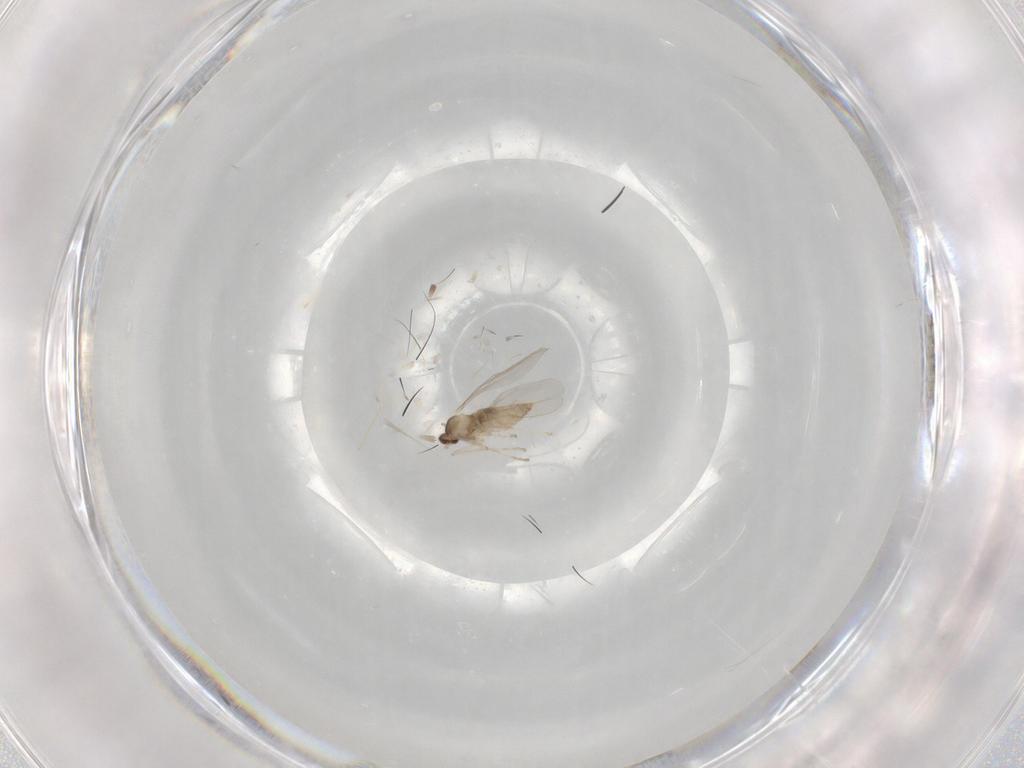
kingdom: Animalia
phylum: Arthropoda
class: Insecta
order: Diptera
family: Cecidomyiidae
